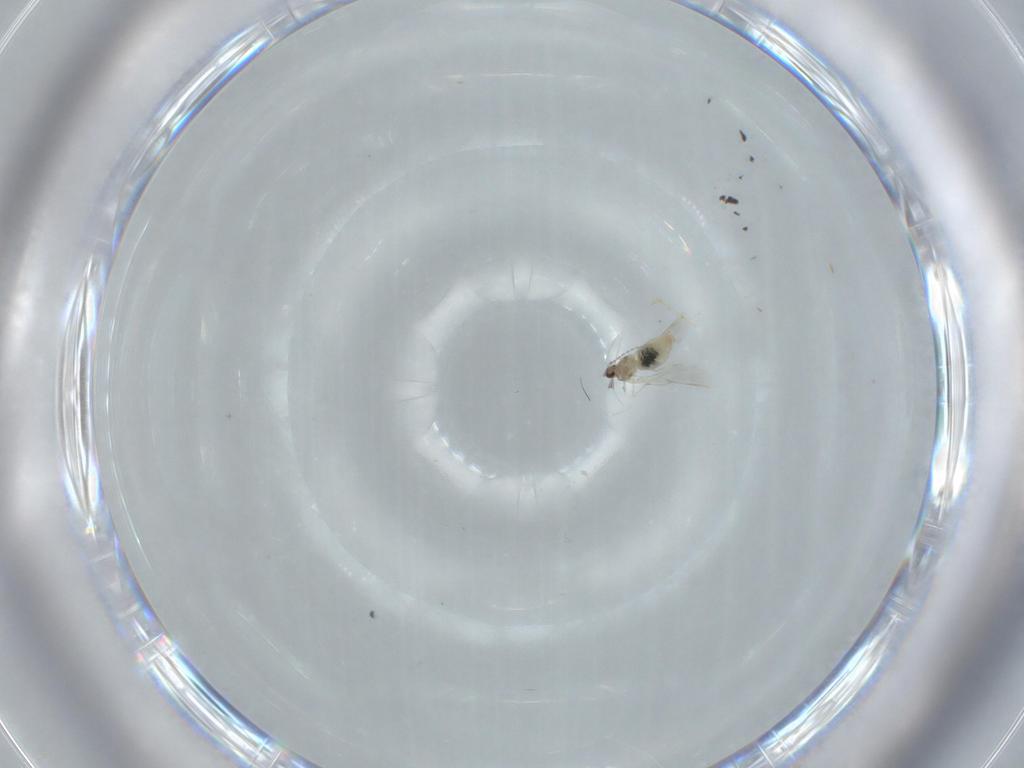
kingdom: Animalia
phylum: Arthropoda
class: Insecta
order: Diptera
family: Cecidomyiidae
